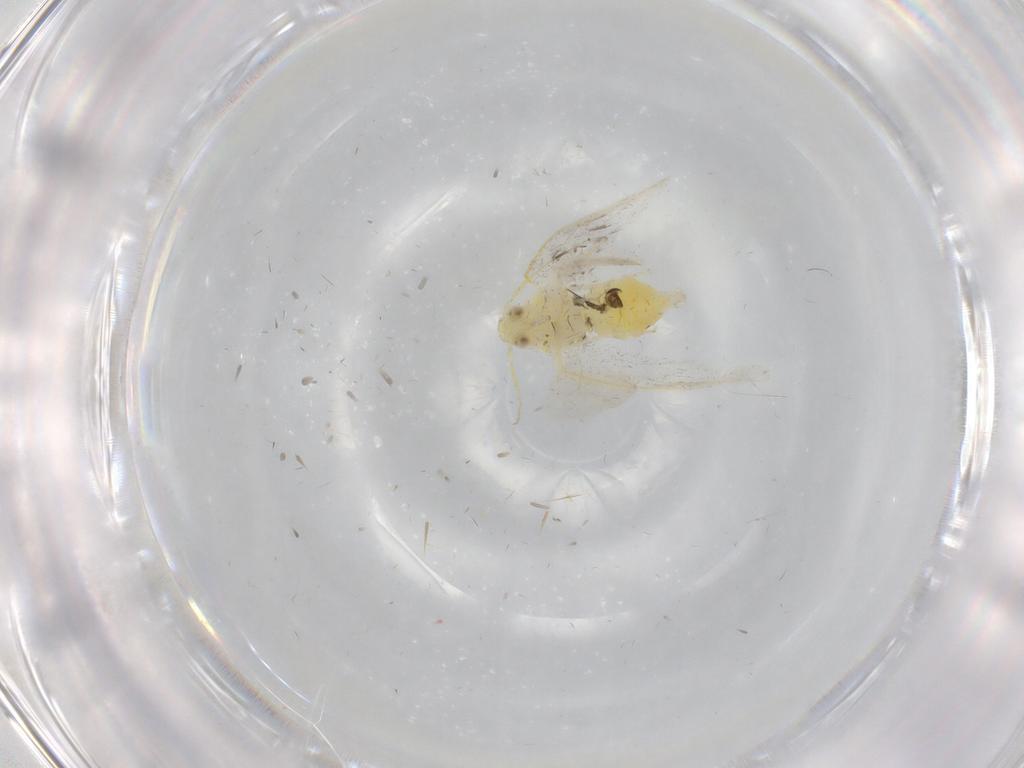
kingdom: Animalia
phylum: Arthropoda
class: Insecta
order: Hemiptera
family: Aleyrodidae
